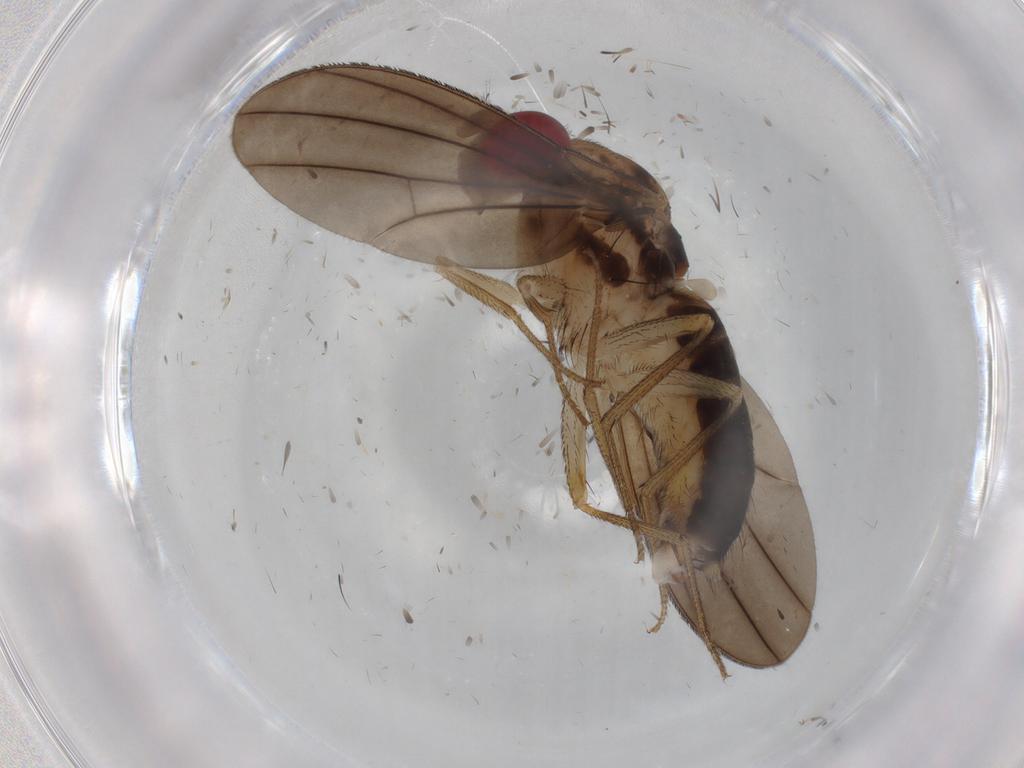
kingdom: Animalia
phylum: Arthropoda
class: Insecta
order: Diptera
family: Drosophilidae
